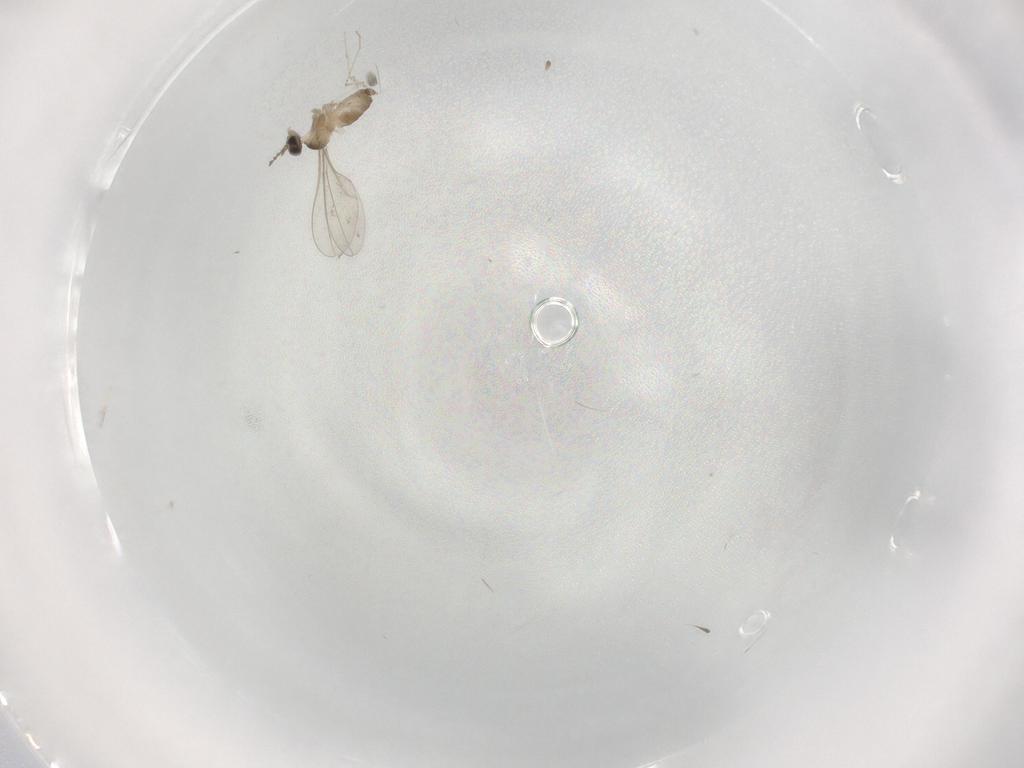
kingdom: Animalia
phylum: Arthropoda
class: Insecta
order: Diptera
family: Cecidomyiidae
